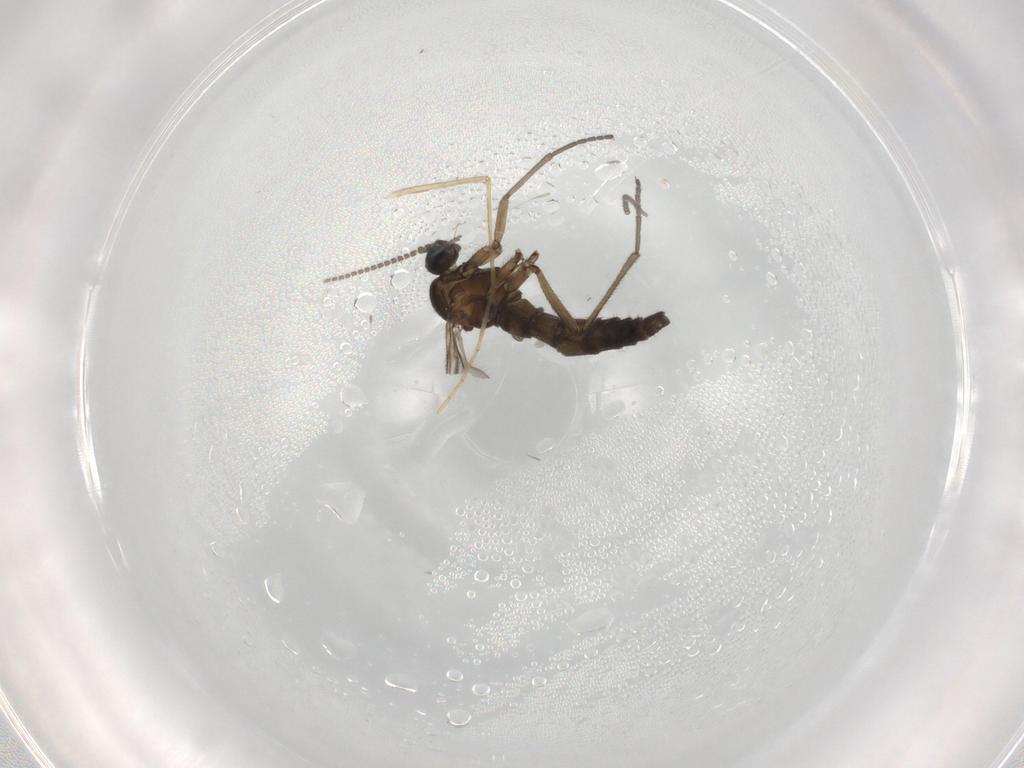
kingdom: Animalia
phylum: Arthropoda
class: Insecta
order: Diptera
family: Sciaridae
